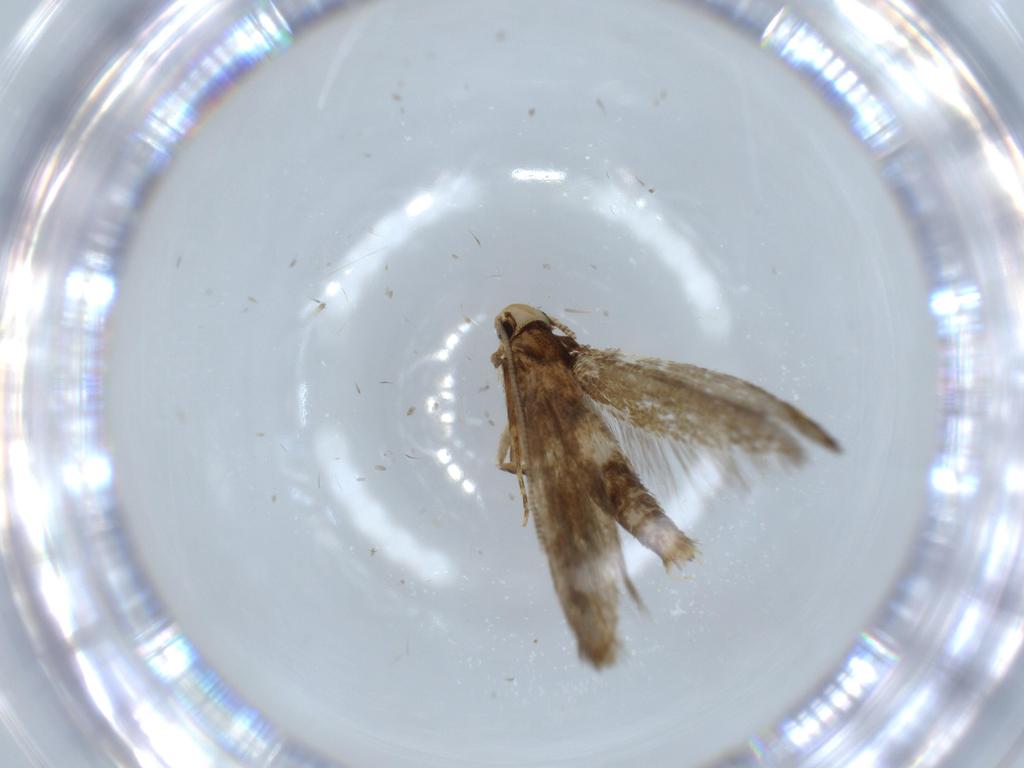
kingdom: Animalia
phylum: Arthropoda
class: Insecta
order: Lepidoptera
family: Tineidae
